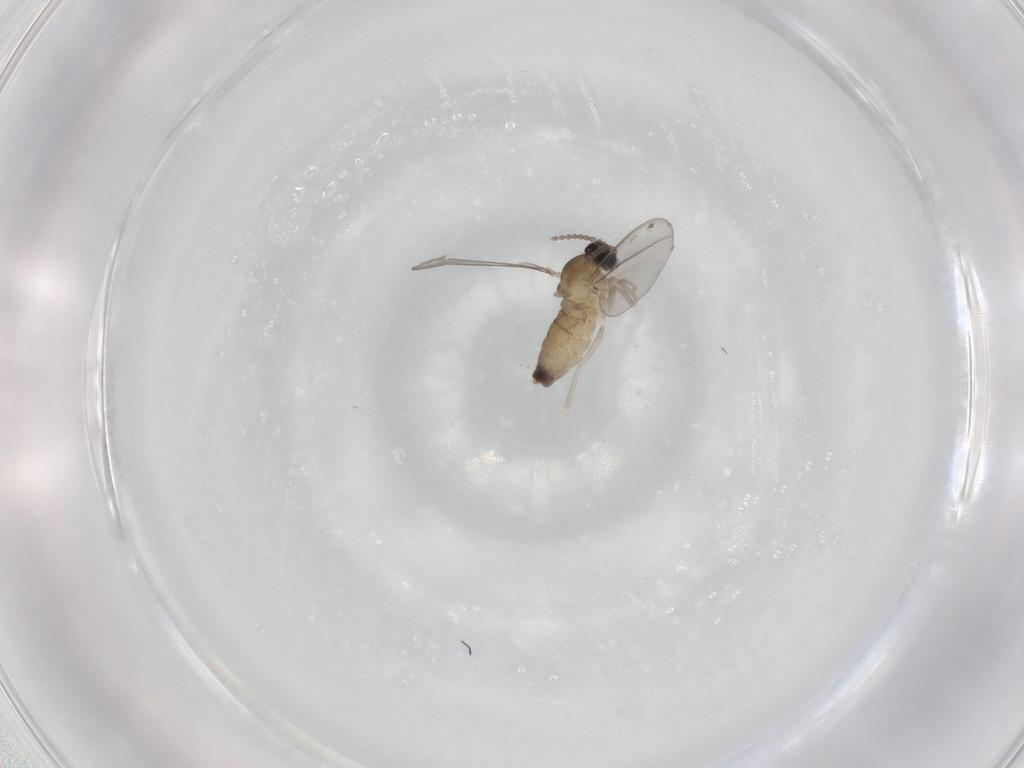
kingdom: Animalia
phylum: Arthropoda
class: Insecta
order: Diptera
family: Cecidomyiidae
